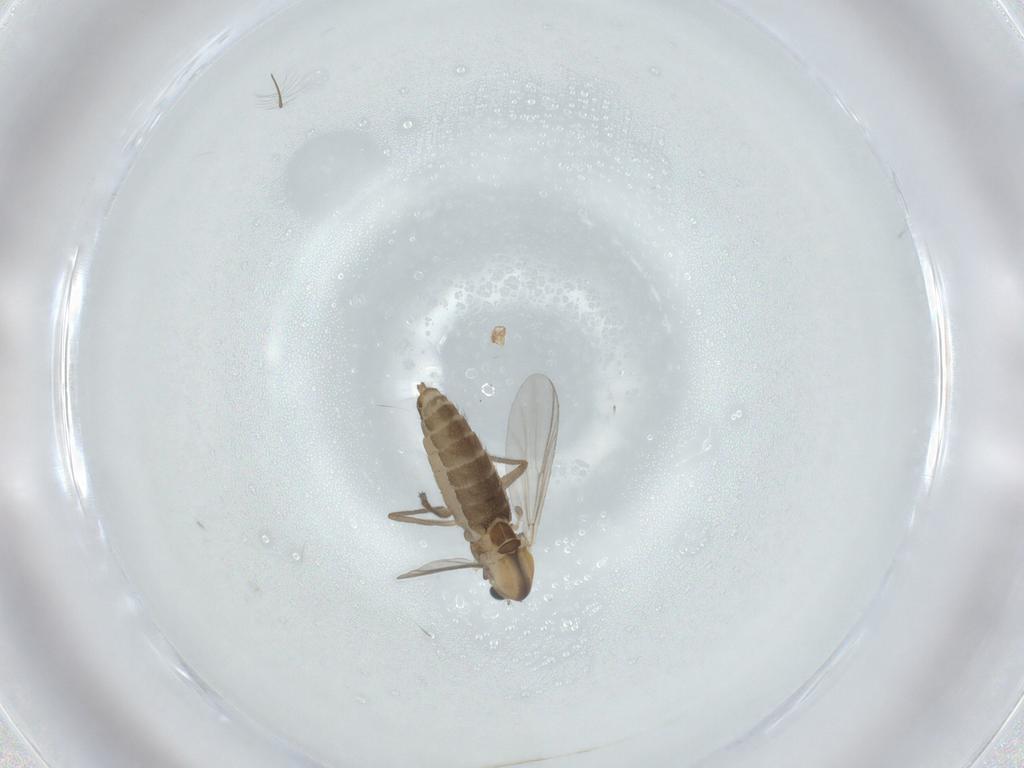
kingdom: Animalia
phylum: Arthropoda
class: Insecta
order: Diptera
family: Chironomidae
